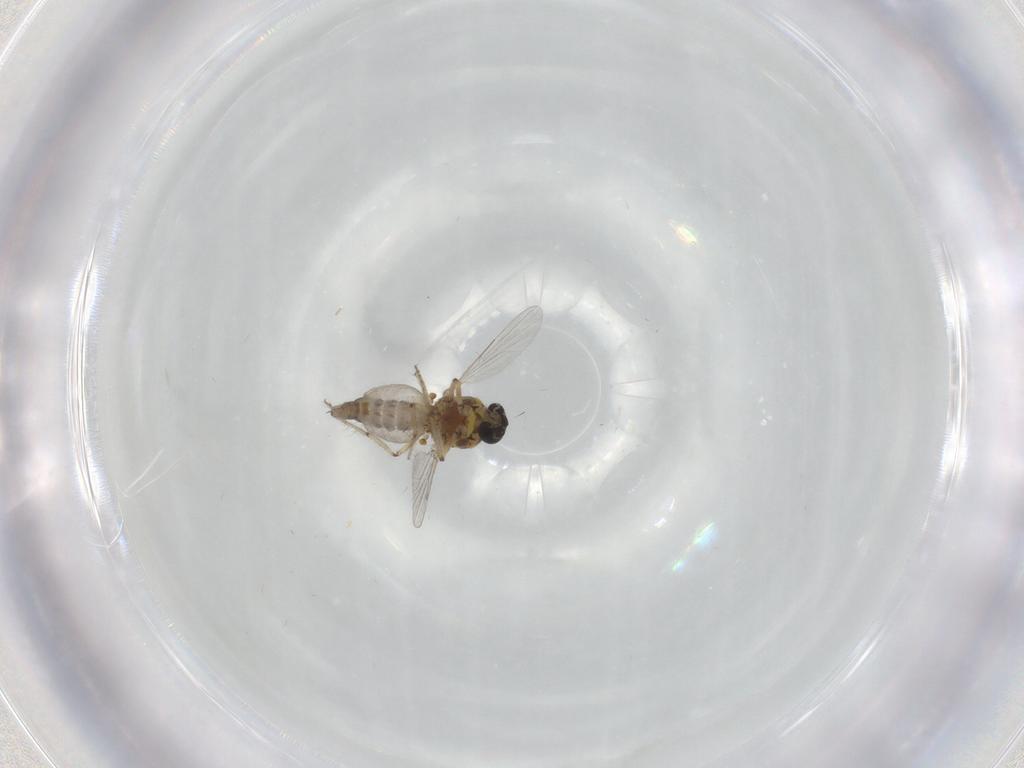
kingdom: Animalia
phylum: Arthropoda
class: Insecta
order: Diptera
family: Ceratopogonidae
